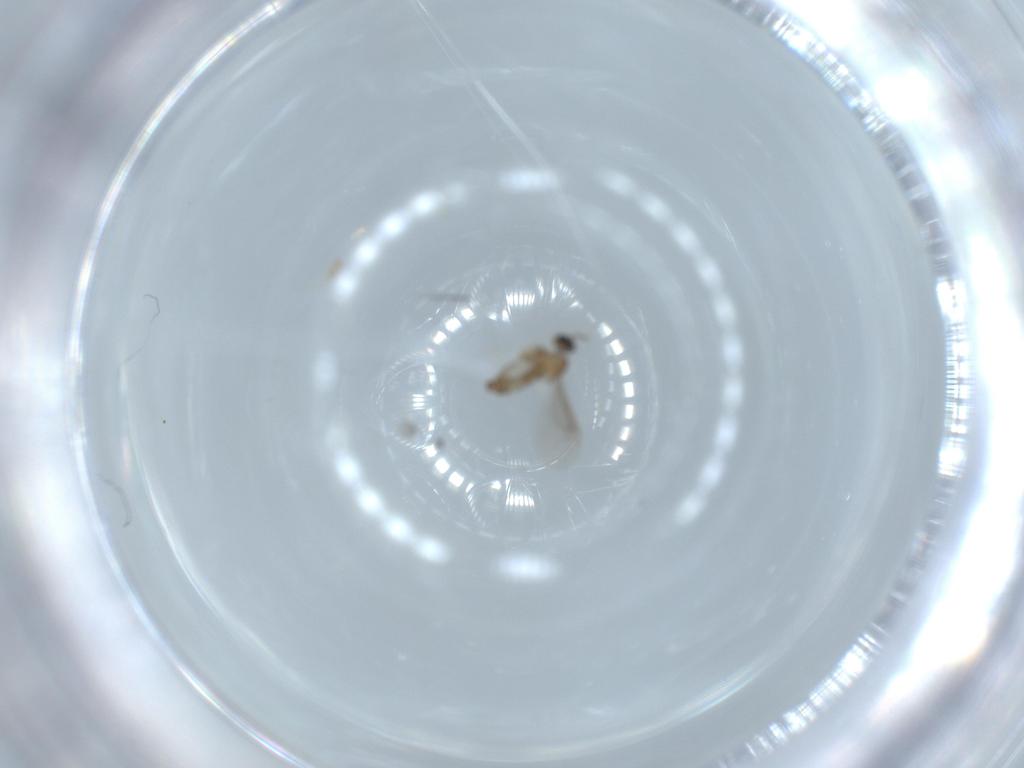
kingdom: Animalia
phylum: Arthropoda
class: Insecta
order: Diptera
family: Cecidomyiidae
